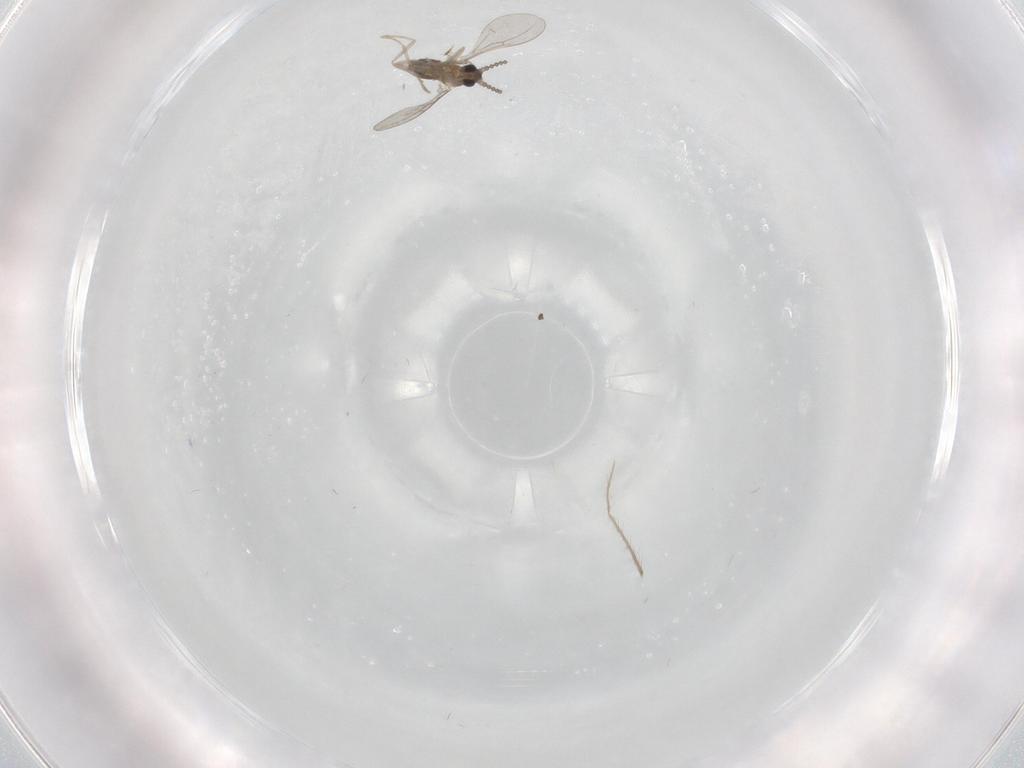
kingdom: Animalia
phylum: Arthropoda
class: Insecta
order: Diptera
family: Cecidomyiidae
